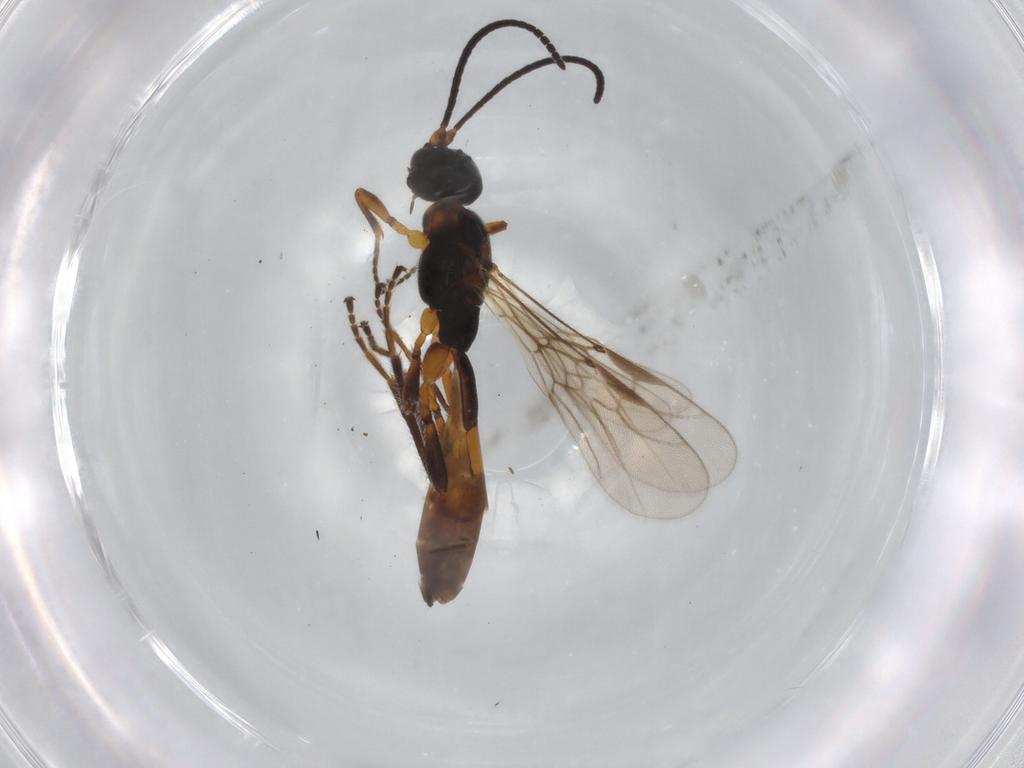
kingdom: Animalia
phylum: Arthropoda
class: Insecta
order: Hymenoptera
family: Braconidae
